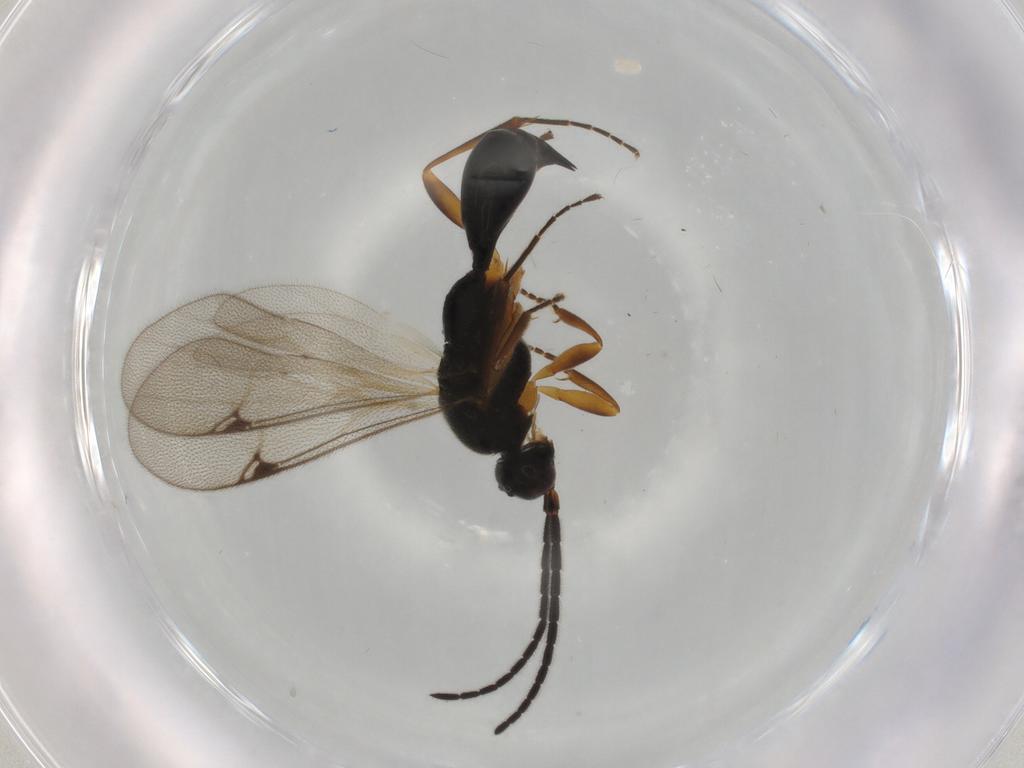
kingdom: Animalia
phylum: Arthropoda
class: Insecta
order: Hymenoptera
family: Proctotrupidae
